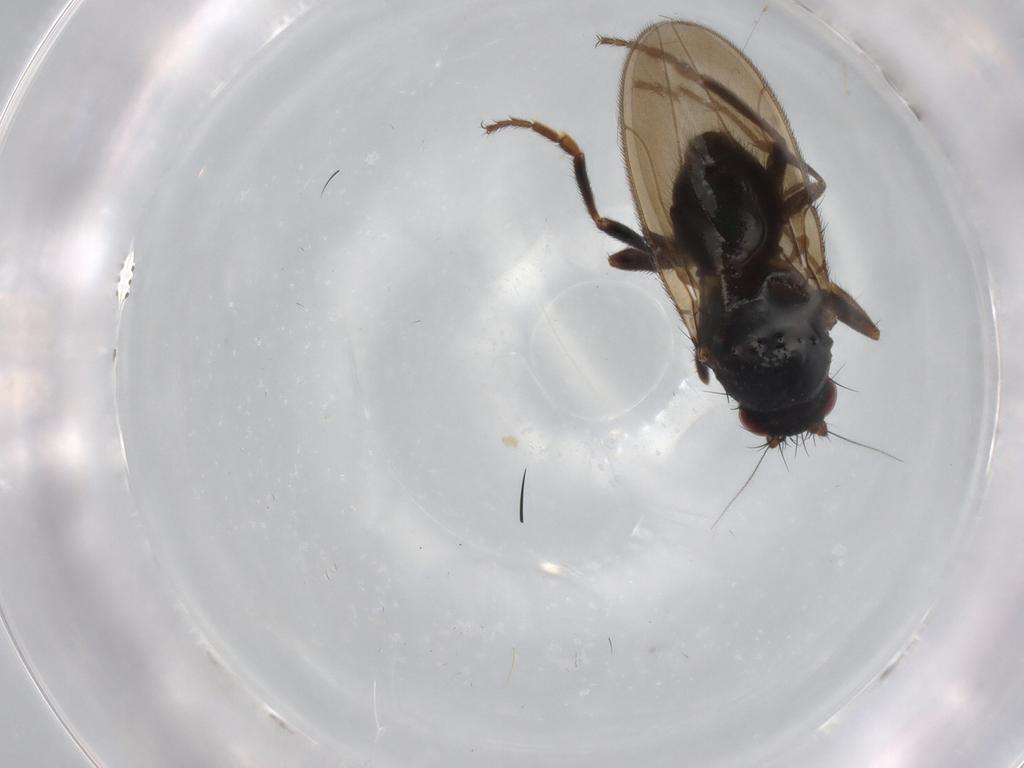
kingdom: Animalia
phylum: Arthropoda
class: Insecta
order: Diptera
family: Sphaeroceridae
